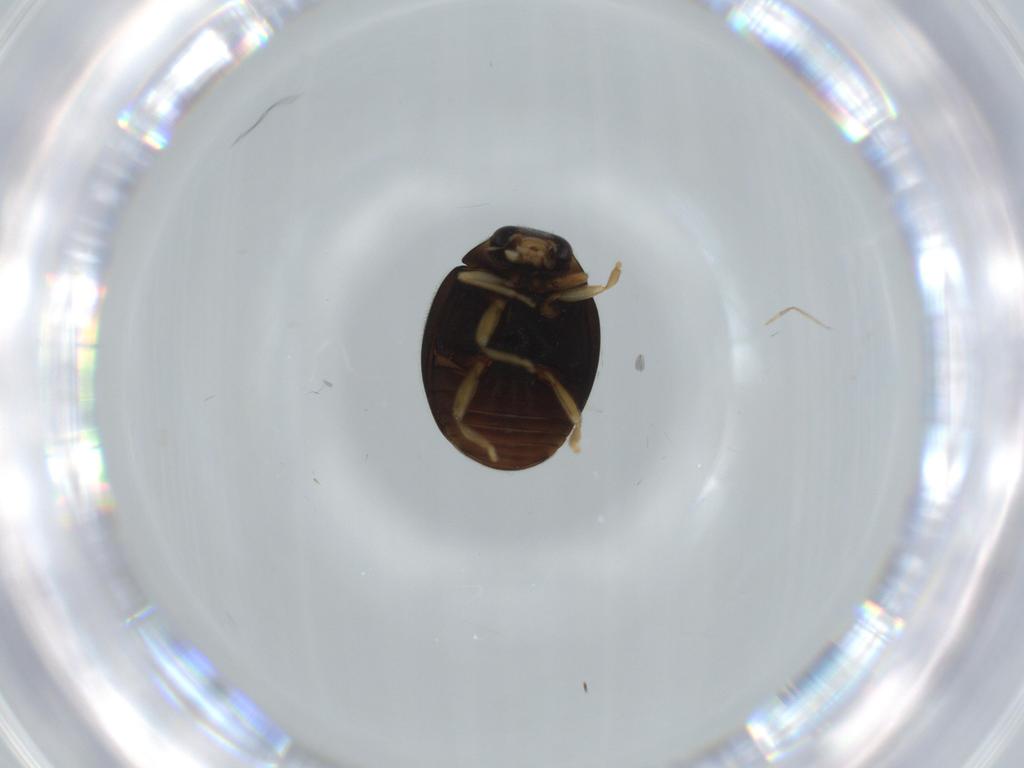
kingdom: Animalia
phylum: Arthropoda
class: Insecta
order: Coleoptera
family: Coccinellidae
